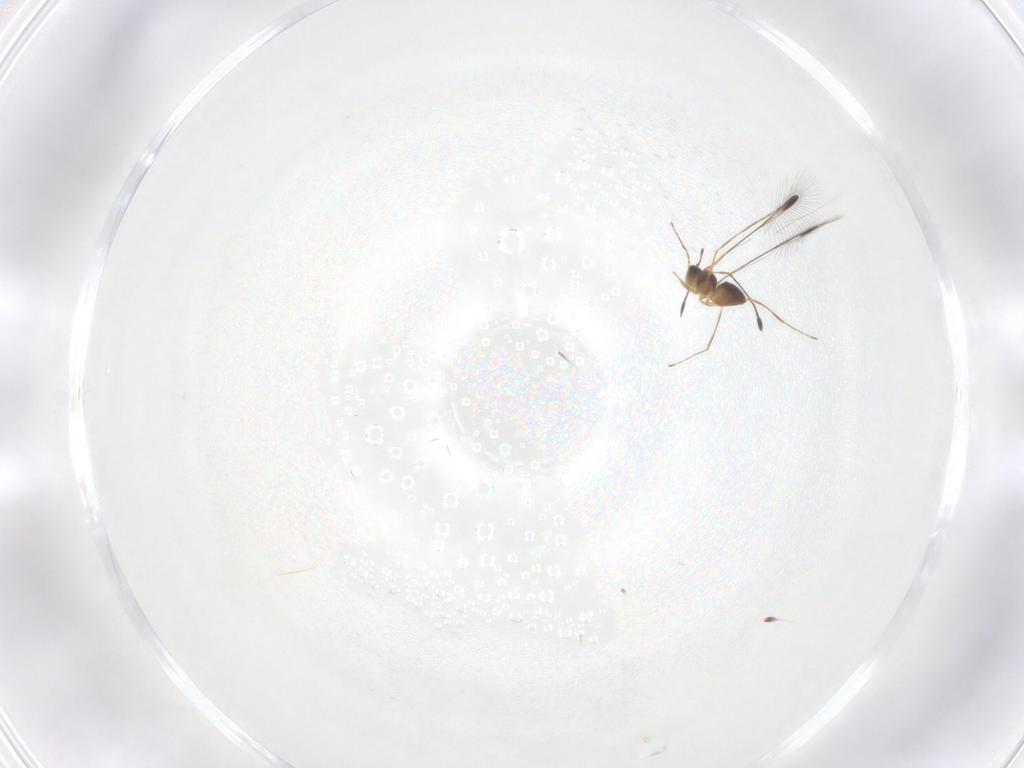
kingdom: Animalia
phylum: Arthropoda
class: Insecta
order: Hymenoptera
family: Mymaridae
